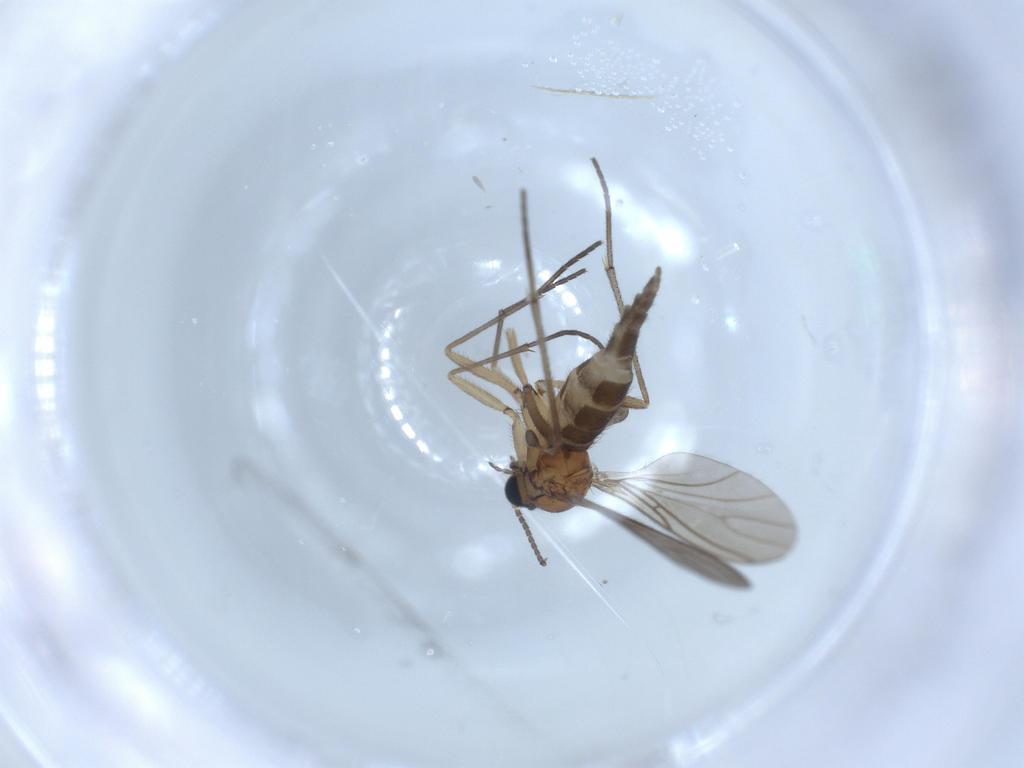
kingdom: Animalia
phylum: Arthropoda
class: Insecta
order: Diptera
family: Sciaridae
